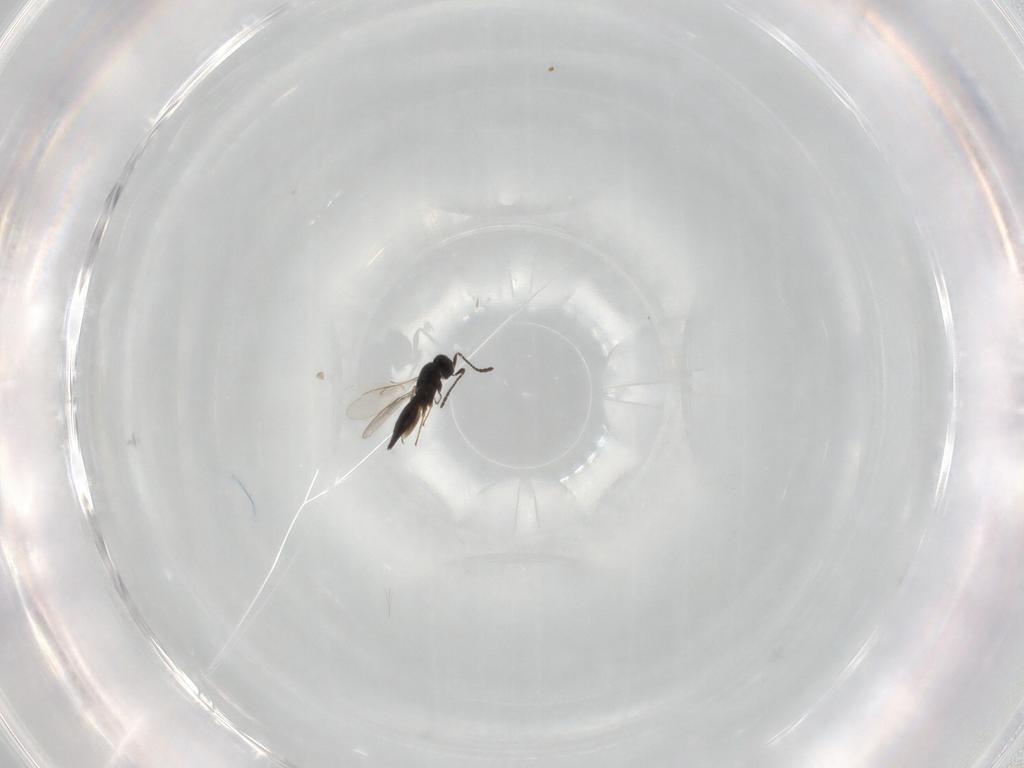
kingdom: Animalia
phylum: Arthropoda
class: Insecta
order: Hymenoptera
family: Scelionidae
